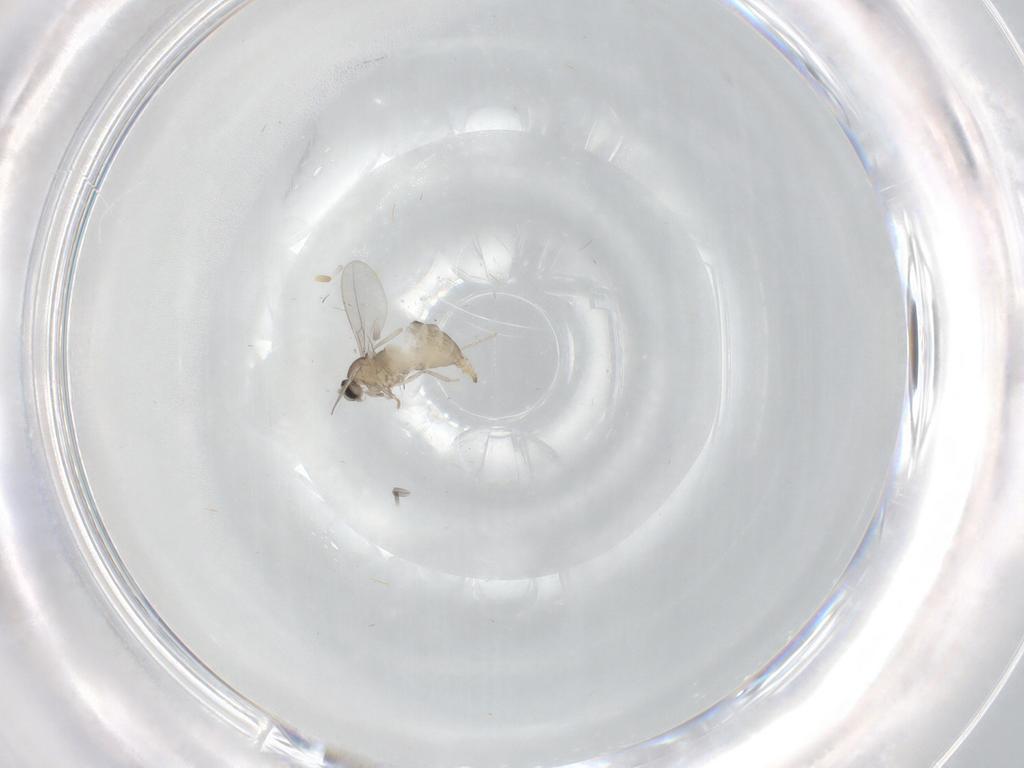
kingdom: Animalia
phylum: Arthropoda
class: Insecta
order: Diptera
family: Cecidomyiidae
